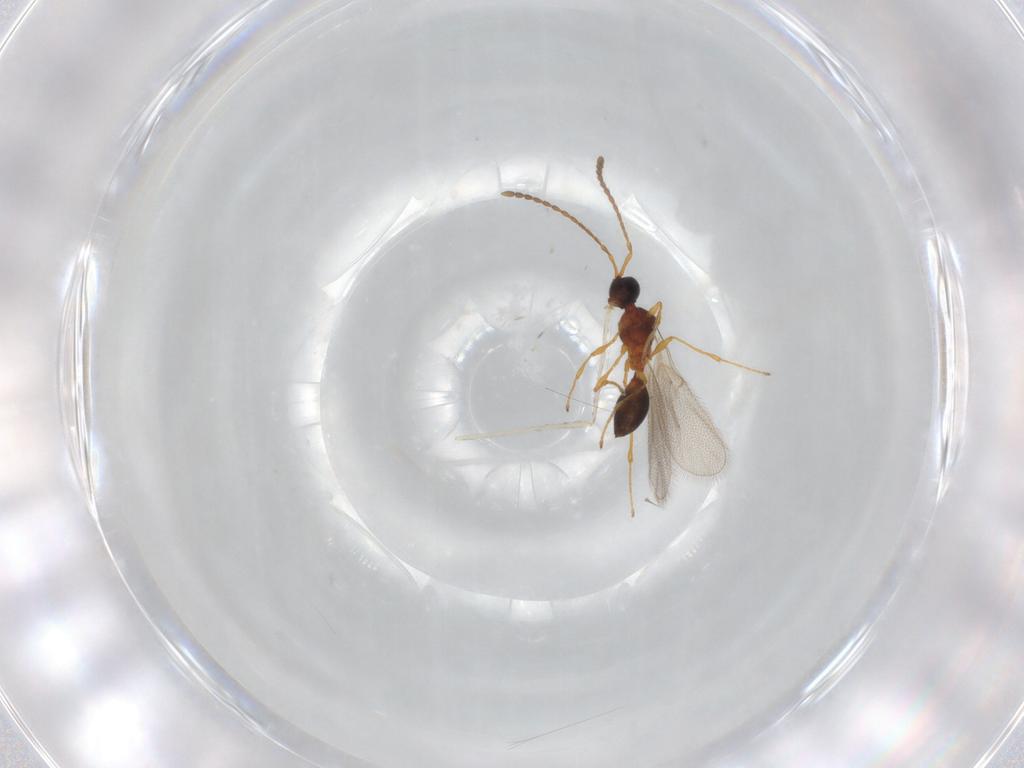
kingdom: Animalia
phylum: Arthropoda
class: Insecta
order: Hymenoptera
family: Diapriidae
